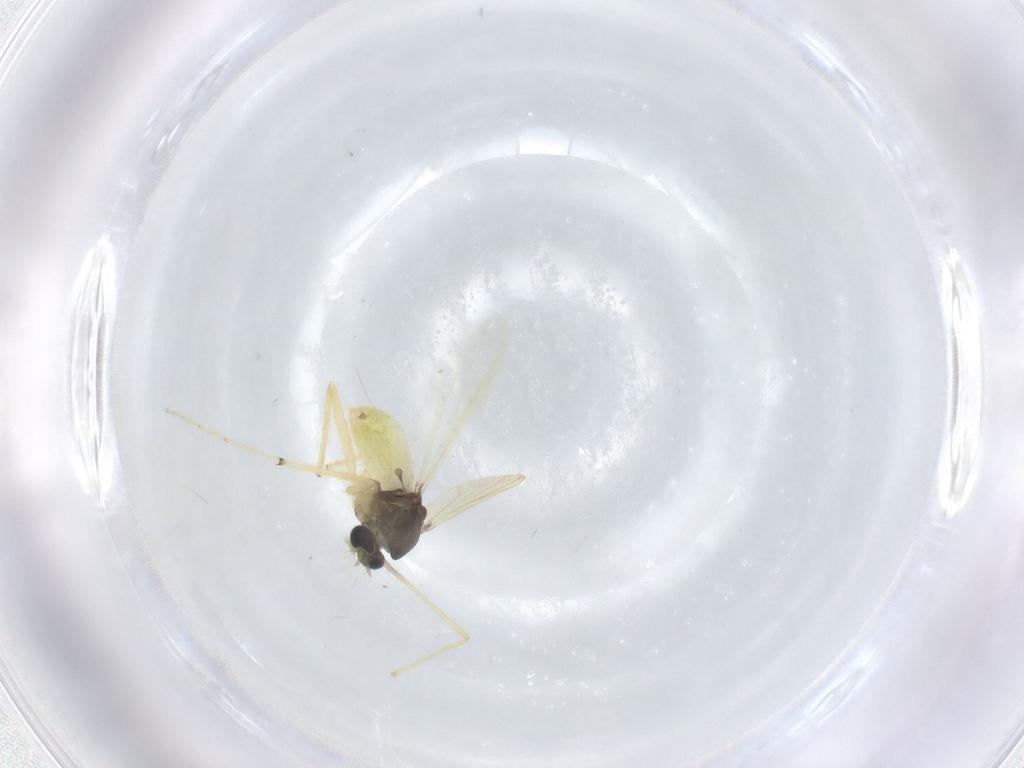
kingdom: Animalia
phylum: Arthropoda
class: Insecta
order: Diptera
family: Chironomidae
